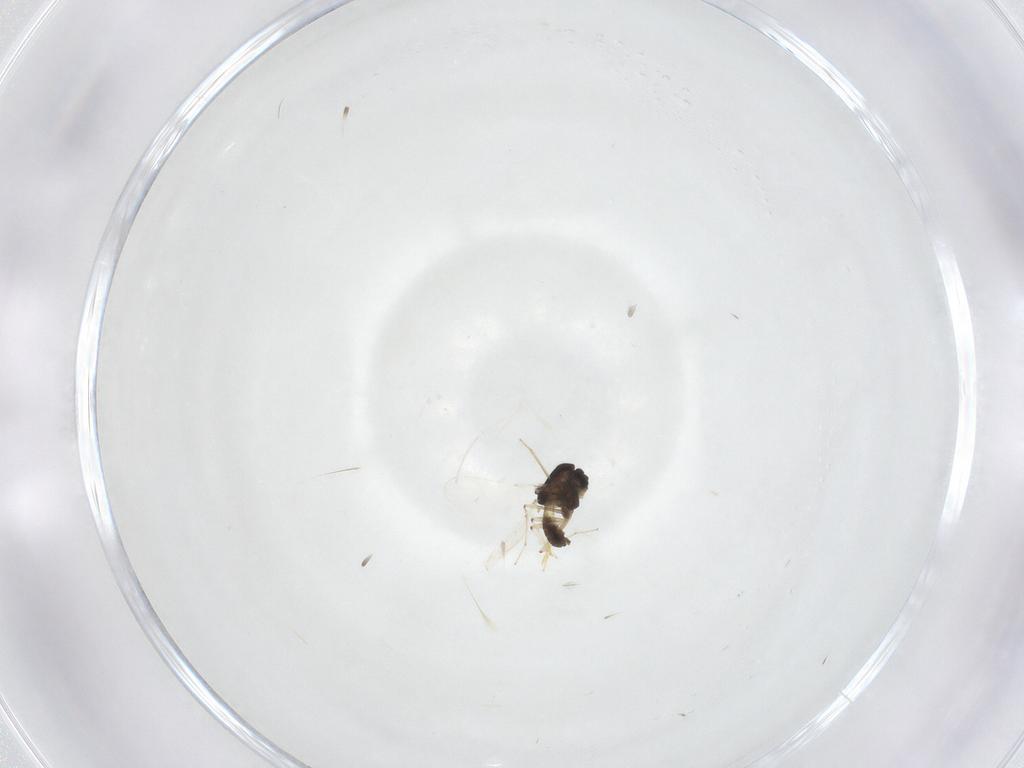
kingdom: Animalia
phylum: Arthropoda
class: Insecta
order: Diptera
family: Chironomidae
